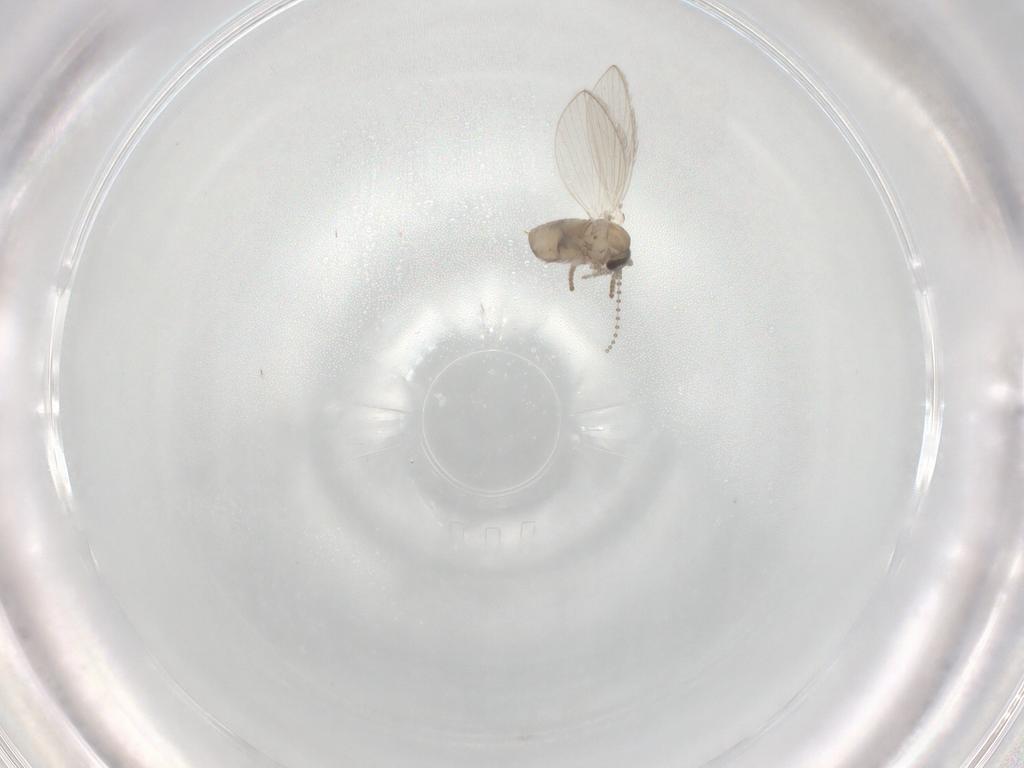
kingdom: Animalia
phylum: Arthropoda
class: Insecta
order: Diptera
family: Psychodidae
